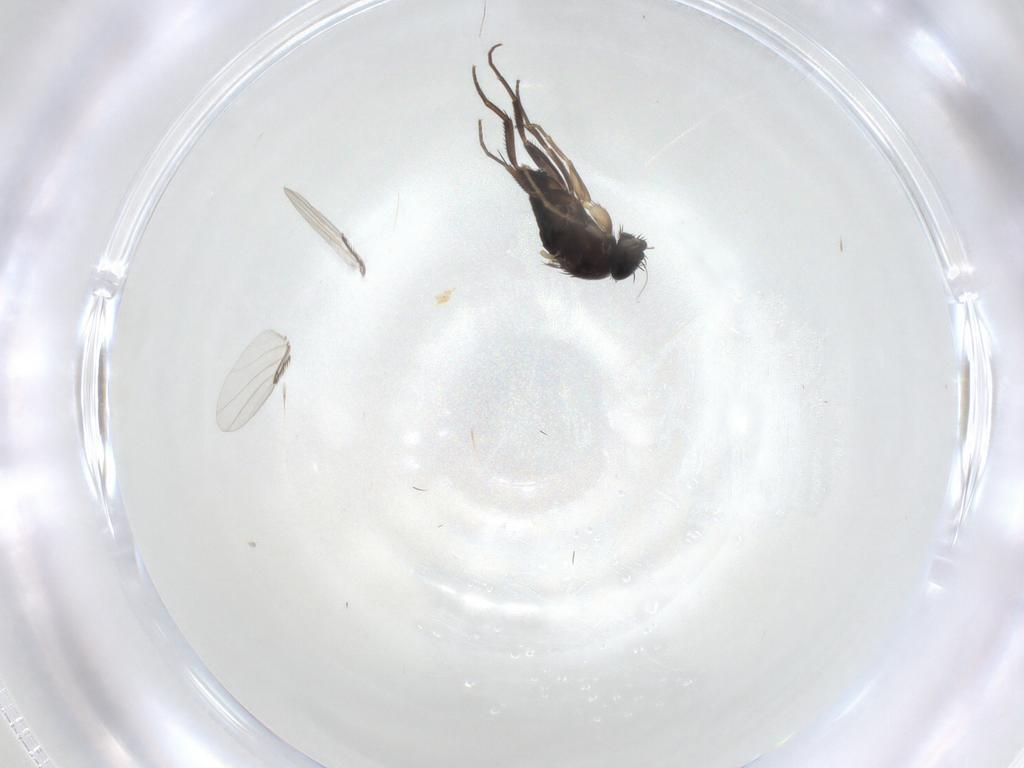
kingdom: Animalia
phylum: Arthropoda
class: Insecta
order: Diptera
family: Phoridae
